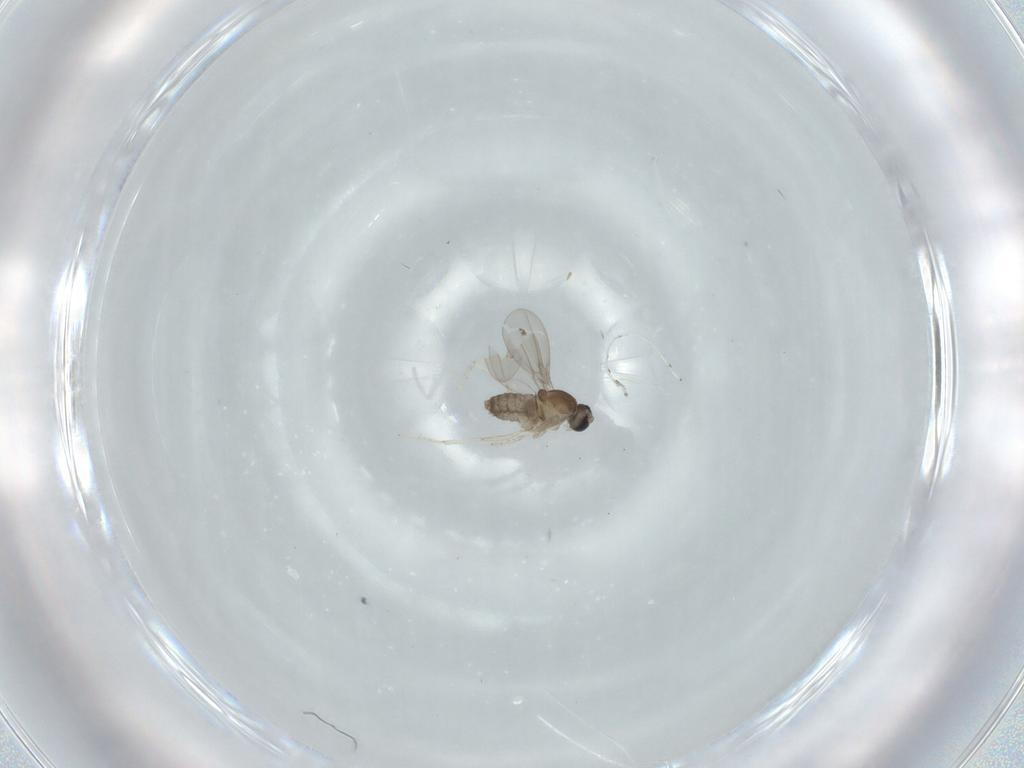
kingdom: Animalia
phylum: Arthropoda
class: Insecta
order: Diptera
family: Cecidomyiidae
